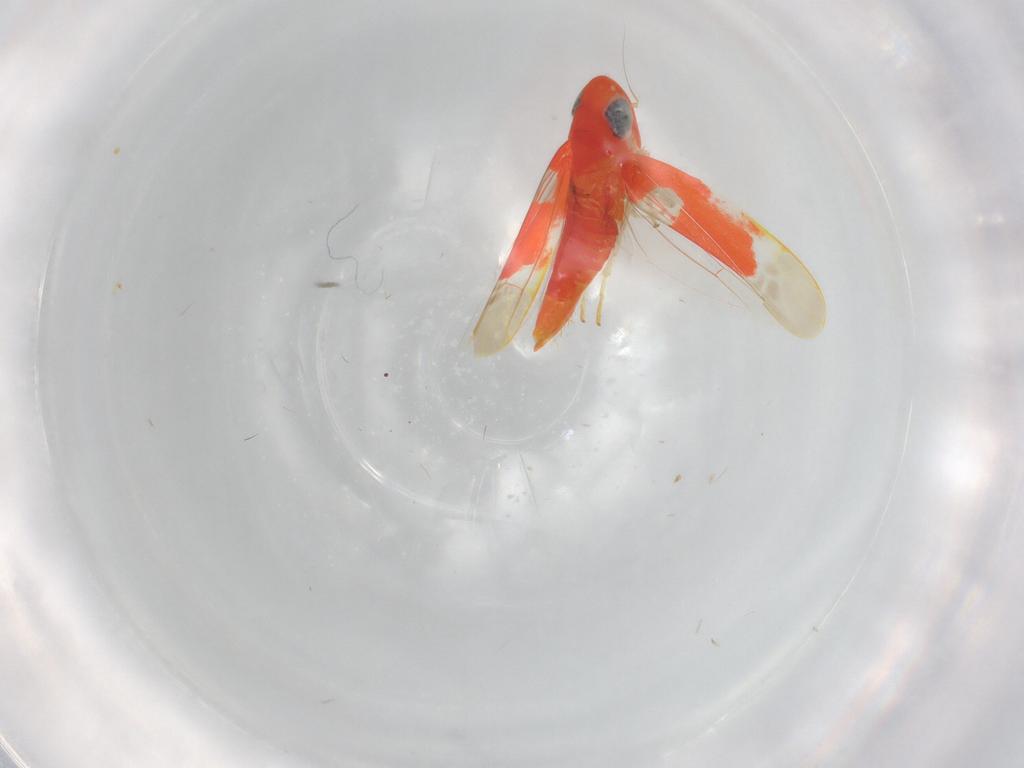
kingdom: Animalia
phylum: Arthropoda
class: Insecta
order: Hemiptera
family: Cicadellidae
